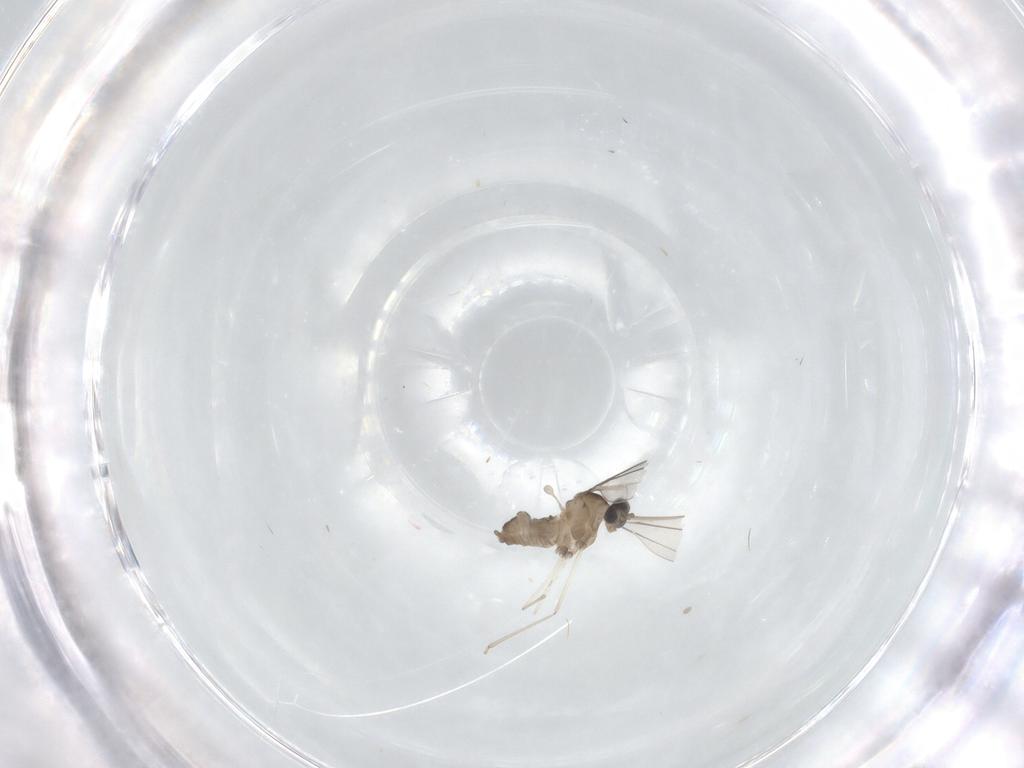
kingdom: Animalia
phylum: Arthropoda
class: Insecta
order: Diptera
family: Cecidomyiidae
